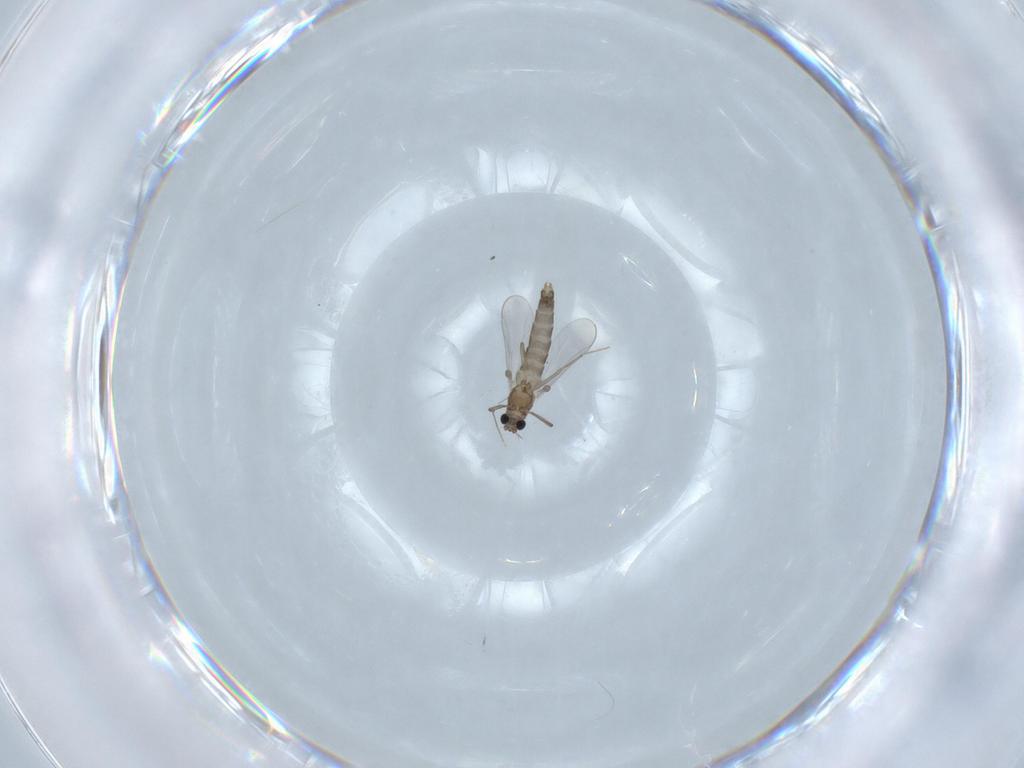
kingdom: Animalia
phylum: Arthropoda
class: Insecta
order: Diptera
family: Chironomidae
